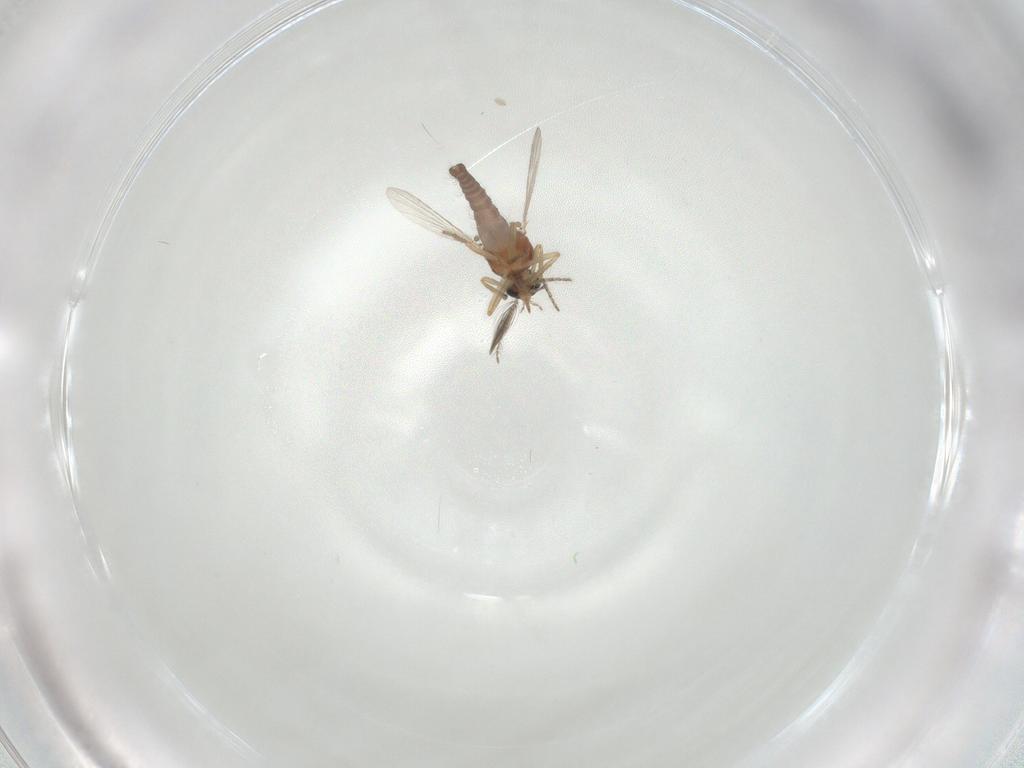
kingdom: Animalia
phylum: Arthropoda
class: Insecta
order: Diptera
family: Ceratopogonidae
